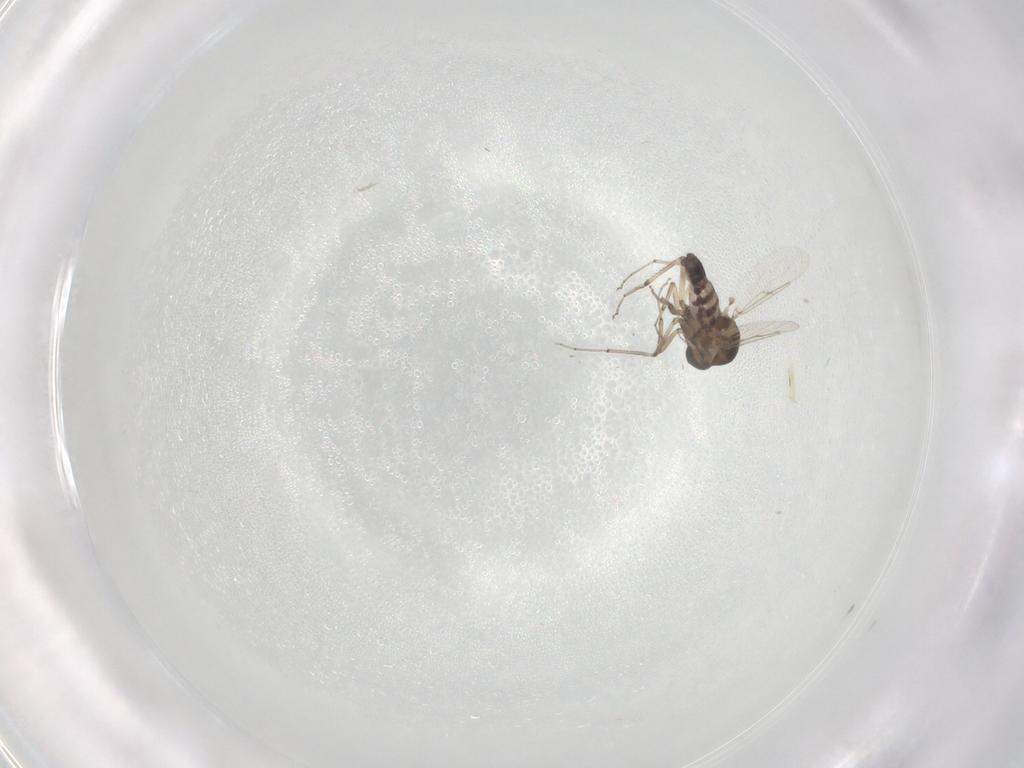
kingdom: Animalia
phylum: Arthropoda
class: Insecta
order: Diptera
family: Ceratopogonidae
